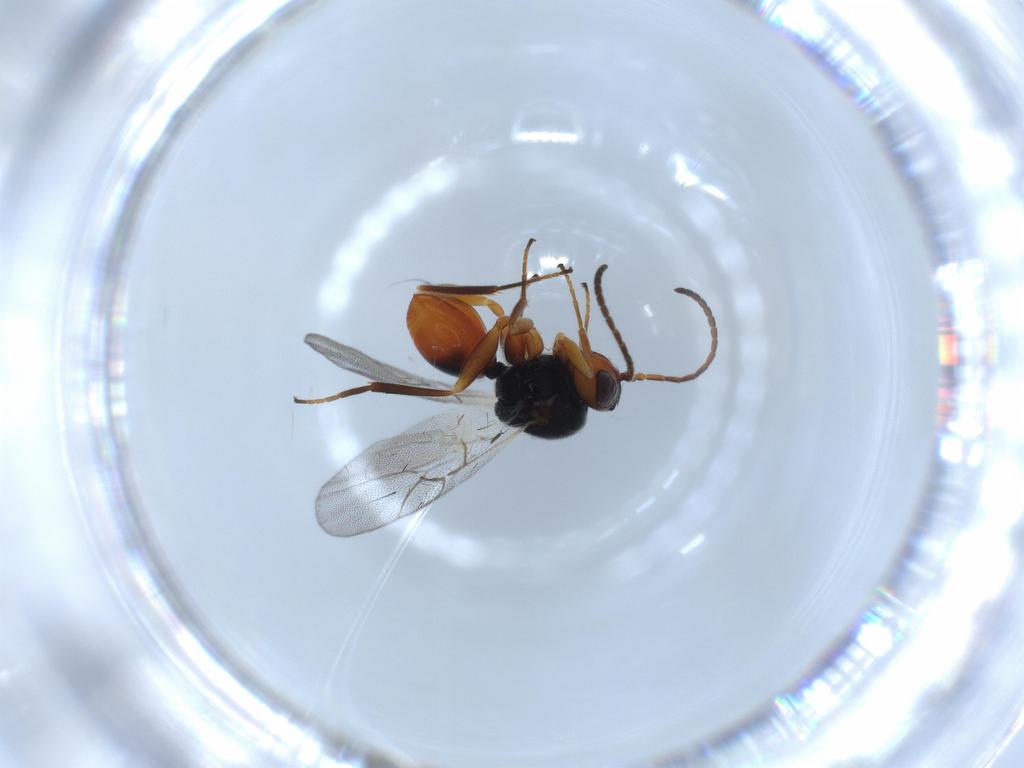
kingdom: Animalia
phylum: Arthropoda
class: Insecta
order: Hymenoptera
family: Cynipidae
